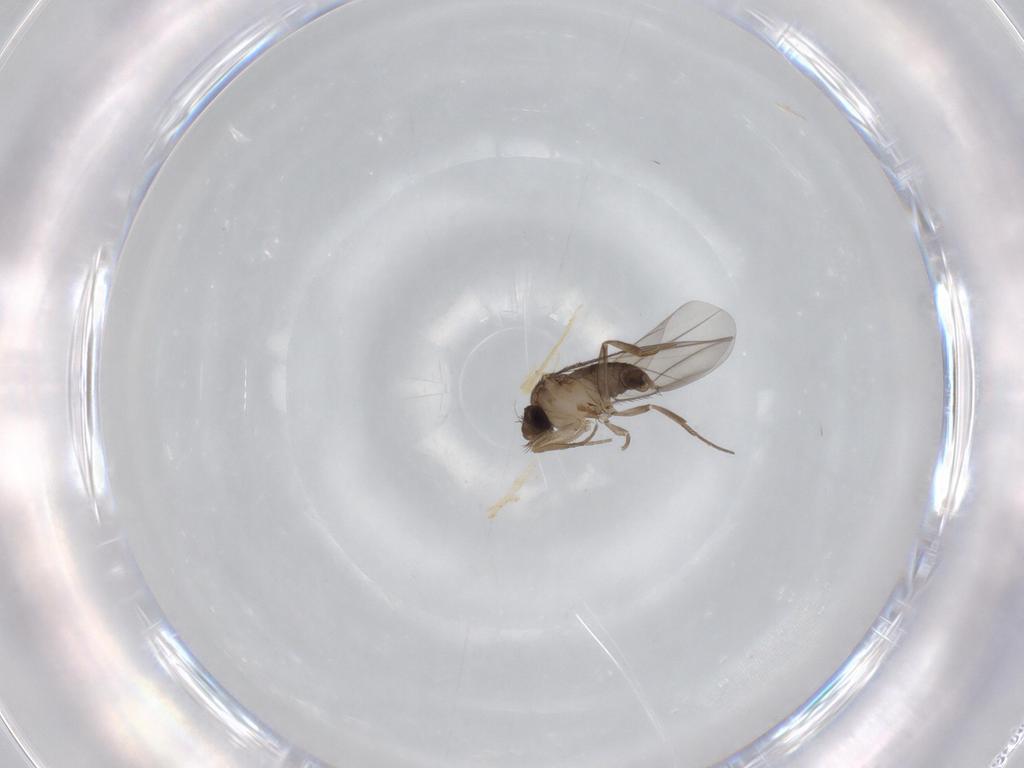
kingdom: Animalia
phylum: Arthropoda
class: Insecta
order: Diptera
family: Phoridae
